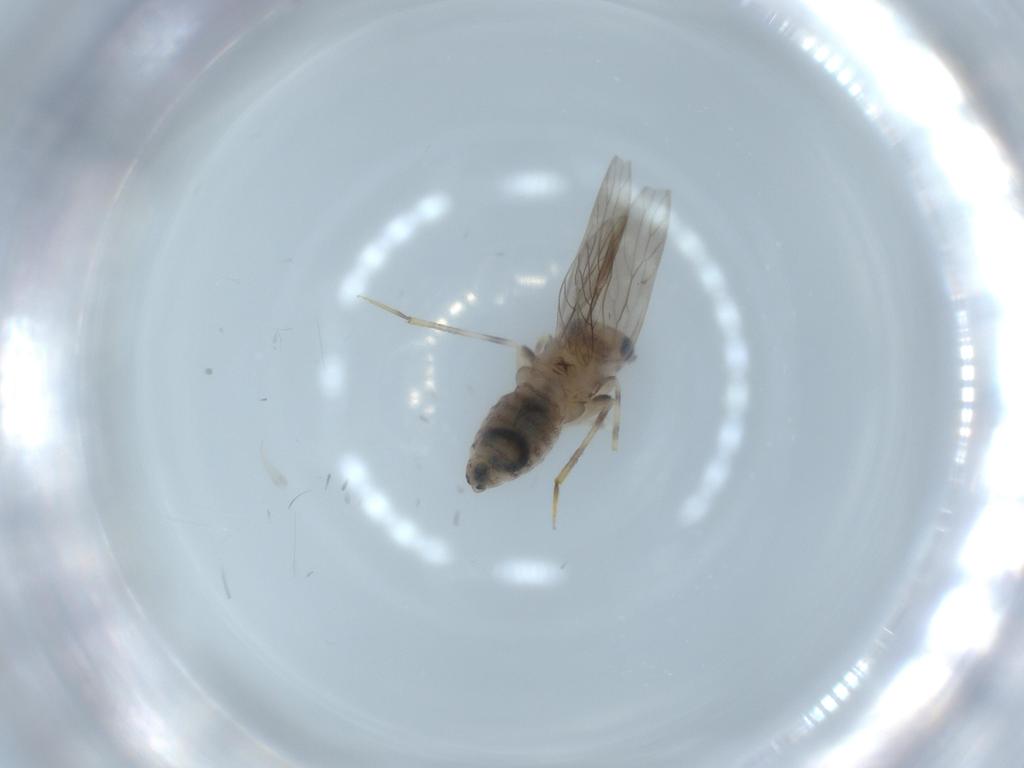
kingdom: Animalia
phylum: Arthropoda
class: Insecta
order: Psocodea
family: Lepidopsocidae
